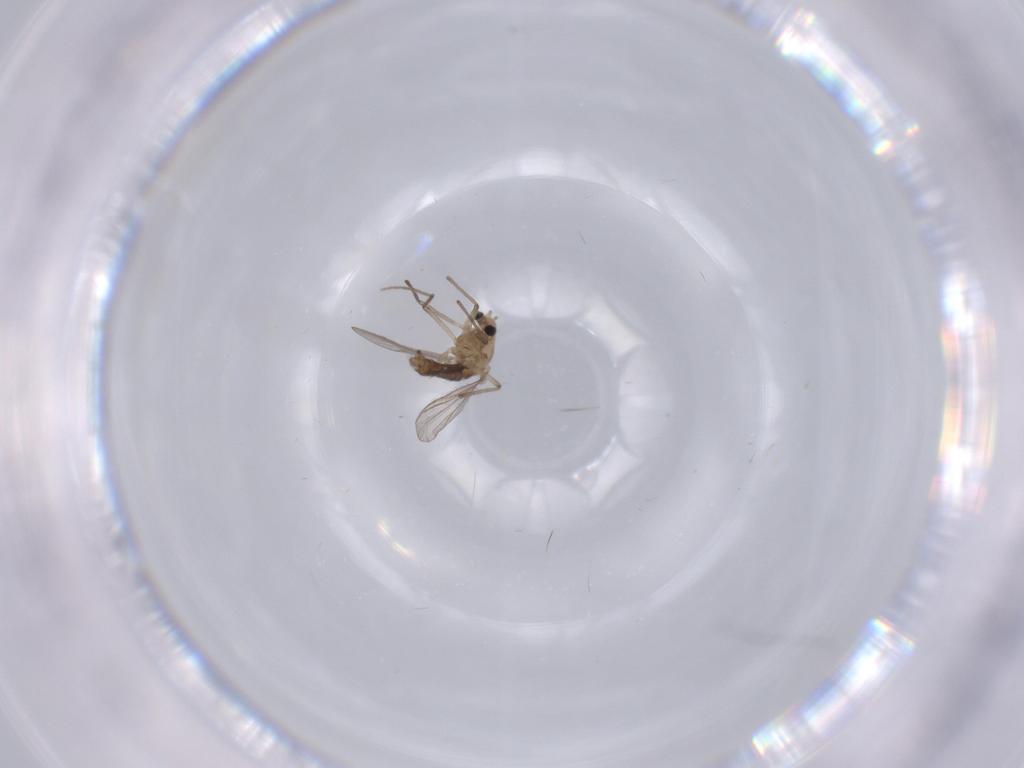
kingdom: Animalia
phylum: Arthropoda
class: Insecta
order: Diptera
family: Chironomidae
